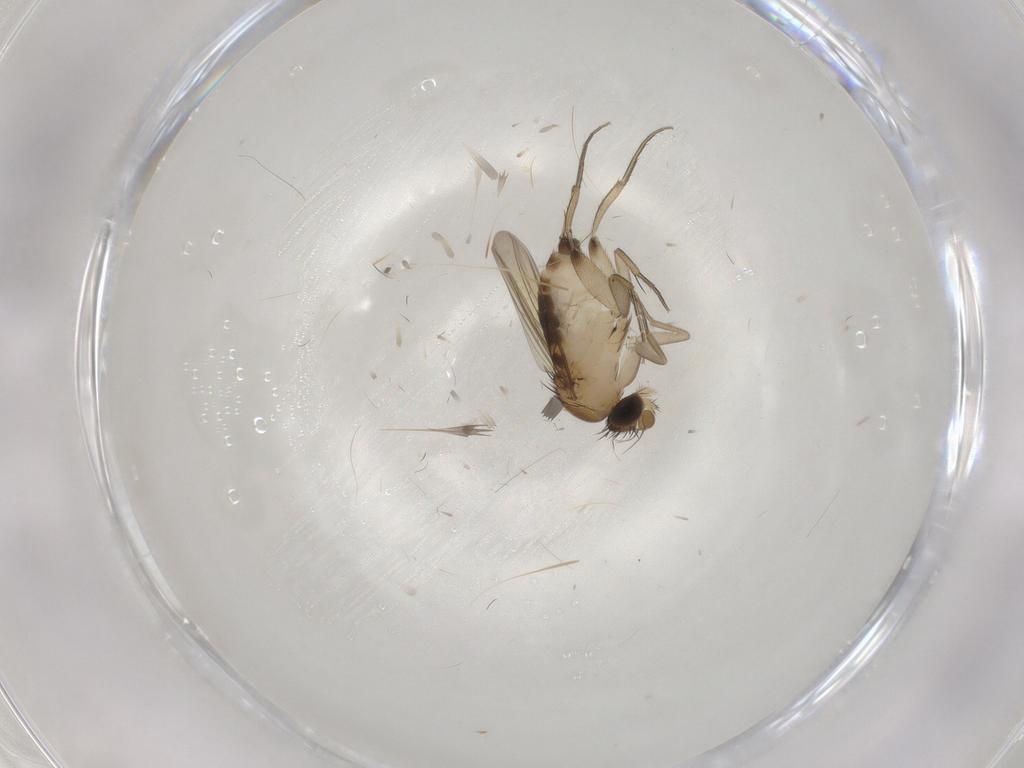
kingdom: Animalia
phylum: Arthropoda
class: Insecta
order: Diptera
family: Phoridae
